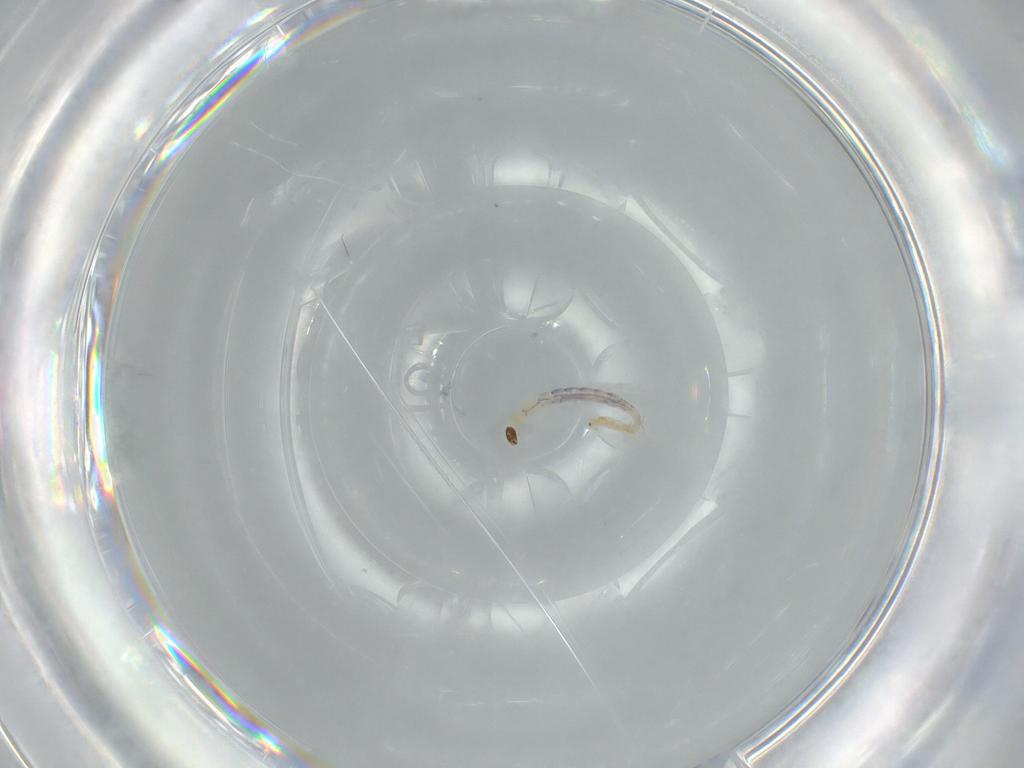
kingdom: Animalia
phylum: Arthropoda
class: Insecta
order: Diptera
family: Chironomidae
